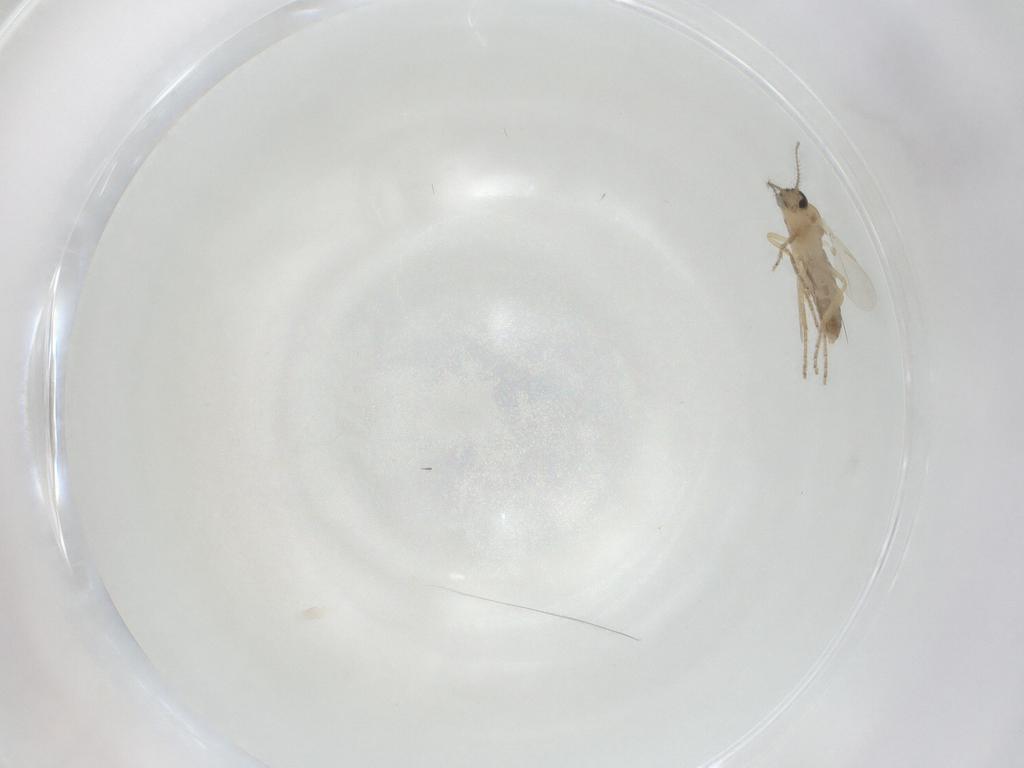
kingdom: Animalia
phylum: Arthropoda
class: Insecta
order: Diptera
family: Ceratopogonidae
